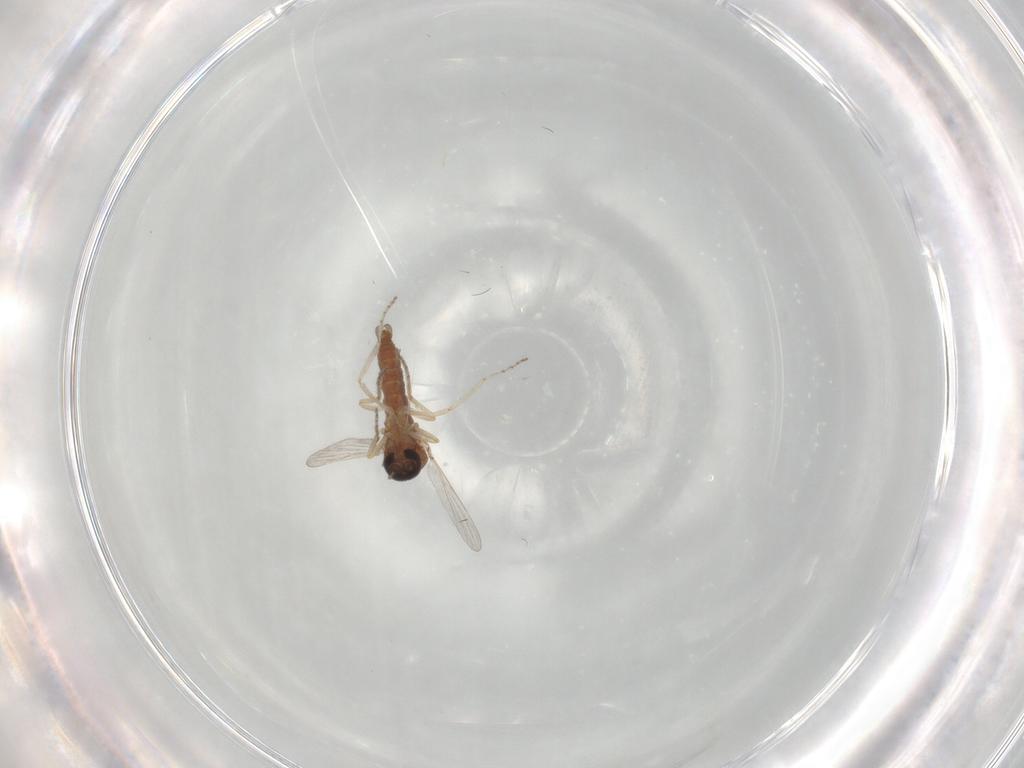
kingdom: Animalia
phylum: Arthropoda
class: Insecta
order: Diptera
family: Ceratopogonidae
